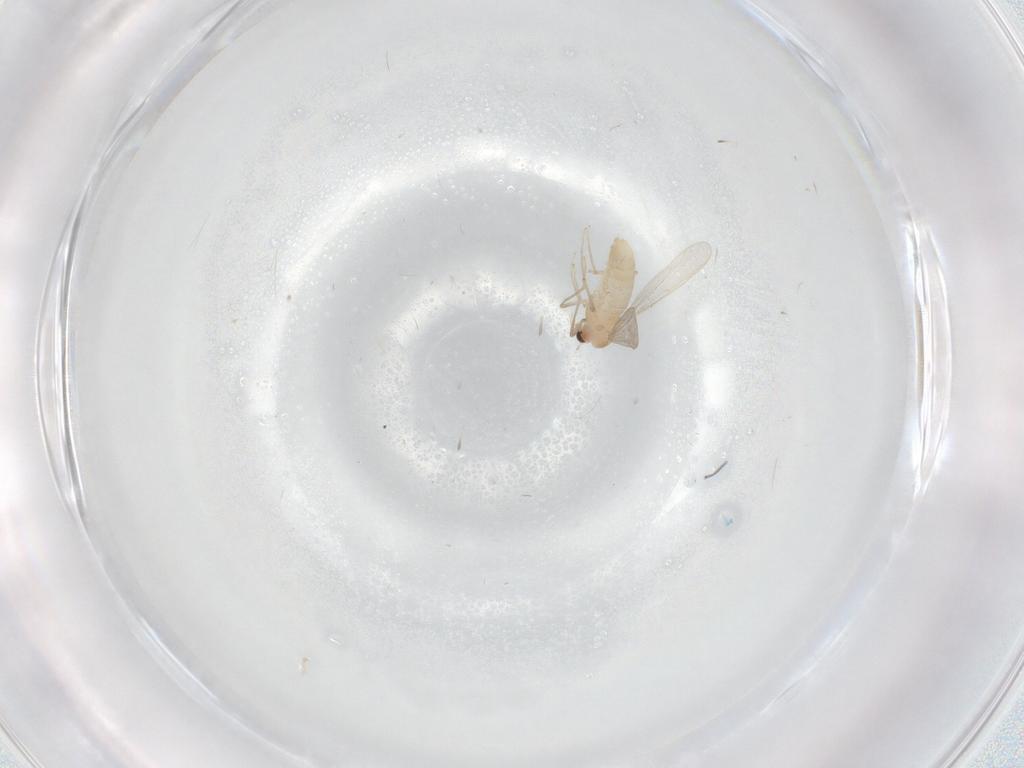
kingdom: Animalia
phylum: Arthropoda
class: Insecta
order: Diptera
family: Chironomidae
